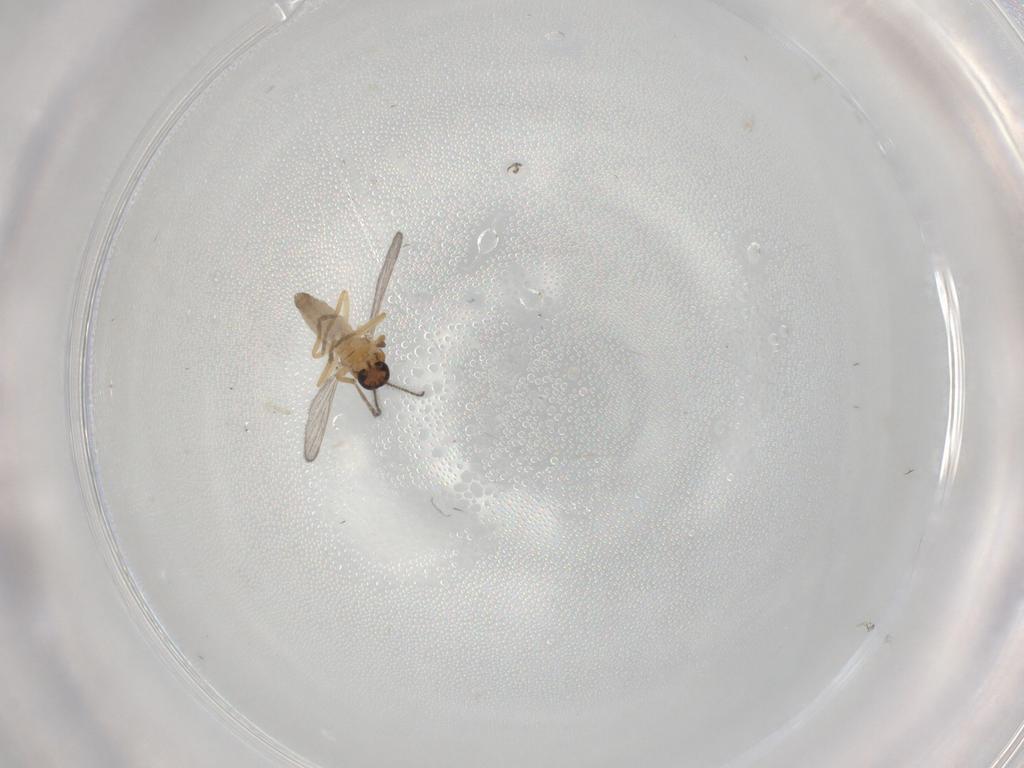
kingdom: Animalia
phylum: Arthropoda
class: Insecta
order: Diptera
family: Ceratopogonidae
